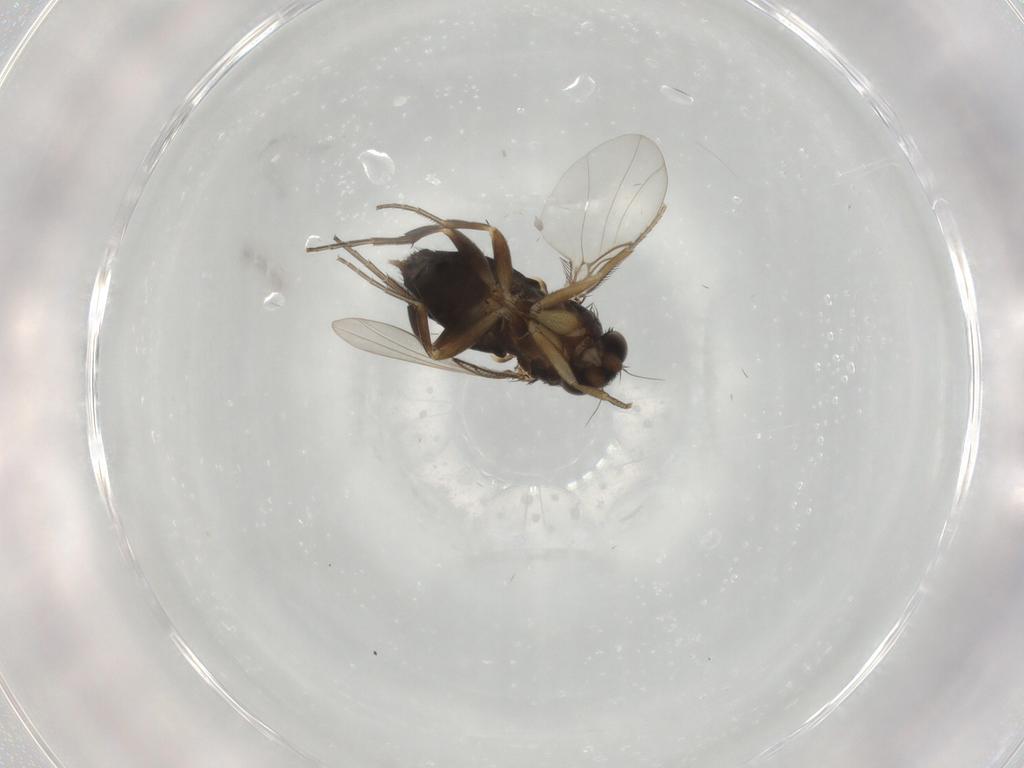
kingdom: Animalia
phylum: Arthropoda
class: Insecta
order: Diptera
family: Phoridae
